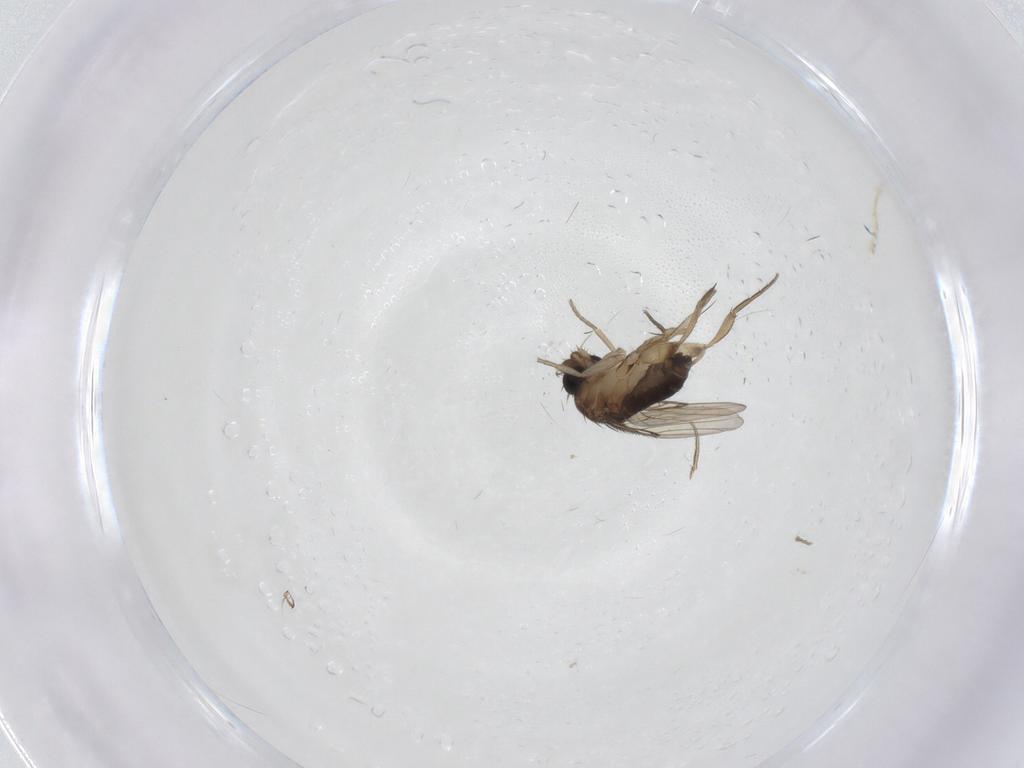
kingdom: Animalia
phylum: Arthropoda
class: Insecta
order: Diptera
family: Phoridae
